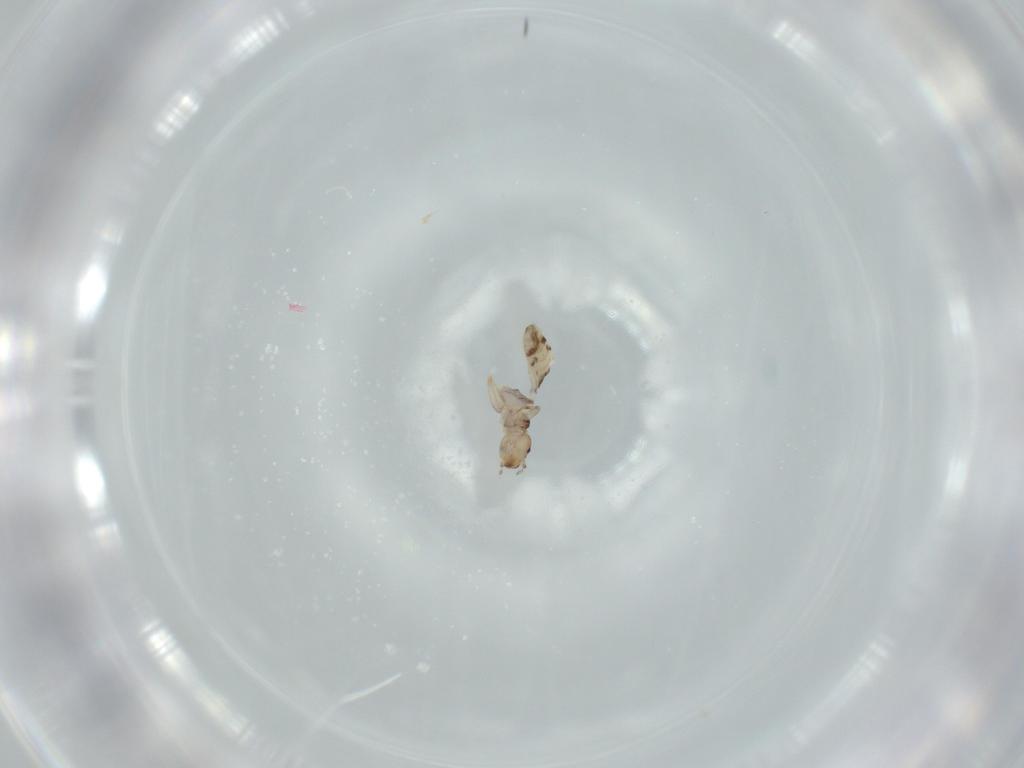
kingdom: Animalia
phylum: Arthropoda
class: Insecta
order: Psocodea
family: Liposcelididae
